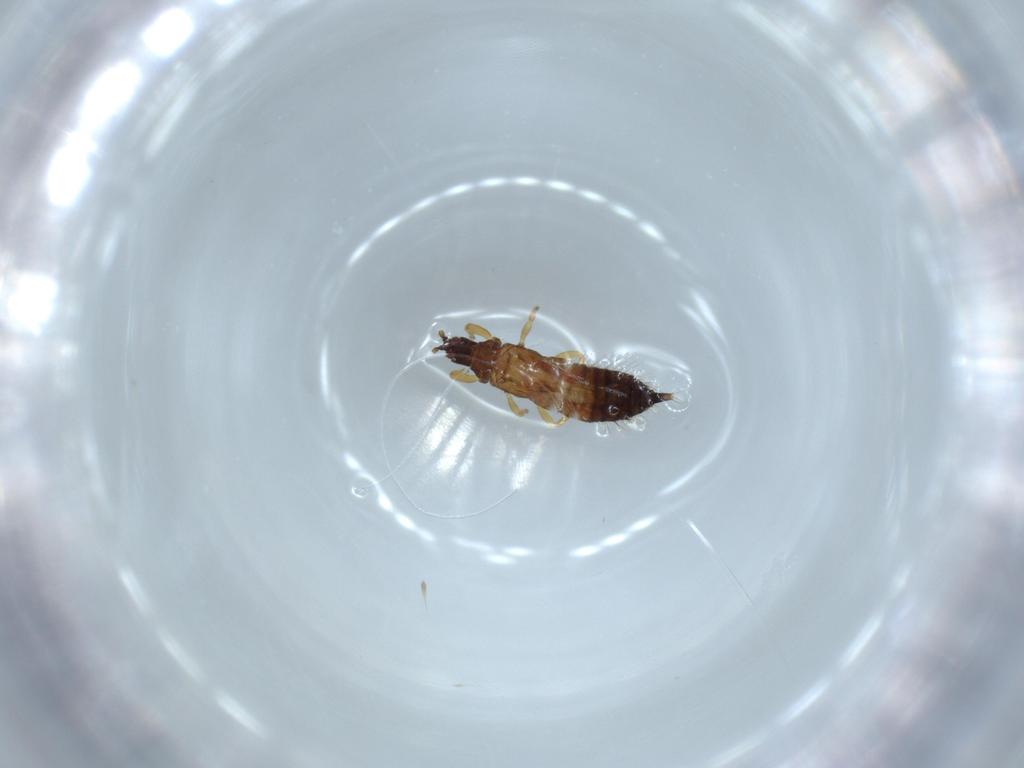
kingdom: Animalia
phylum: Arthropoda
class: Insecta
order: Thysanoptera
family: Phlaeothripidae
